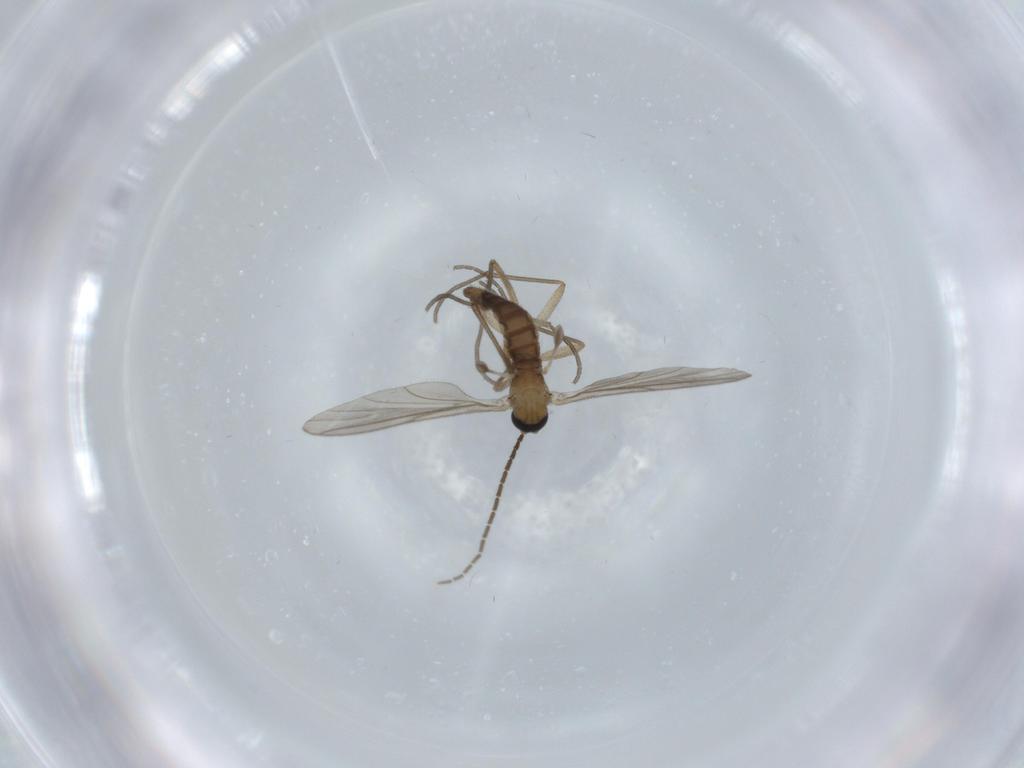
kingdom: Animalia
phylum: Arthropoda
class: Insecta
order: Diptera
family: Sciaridae
